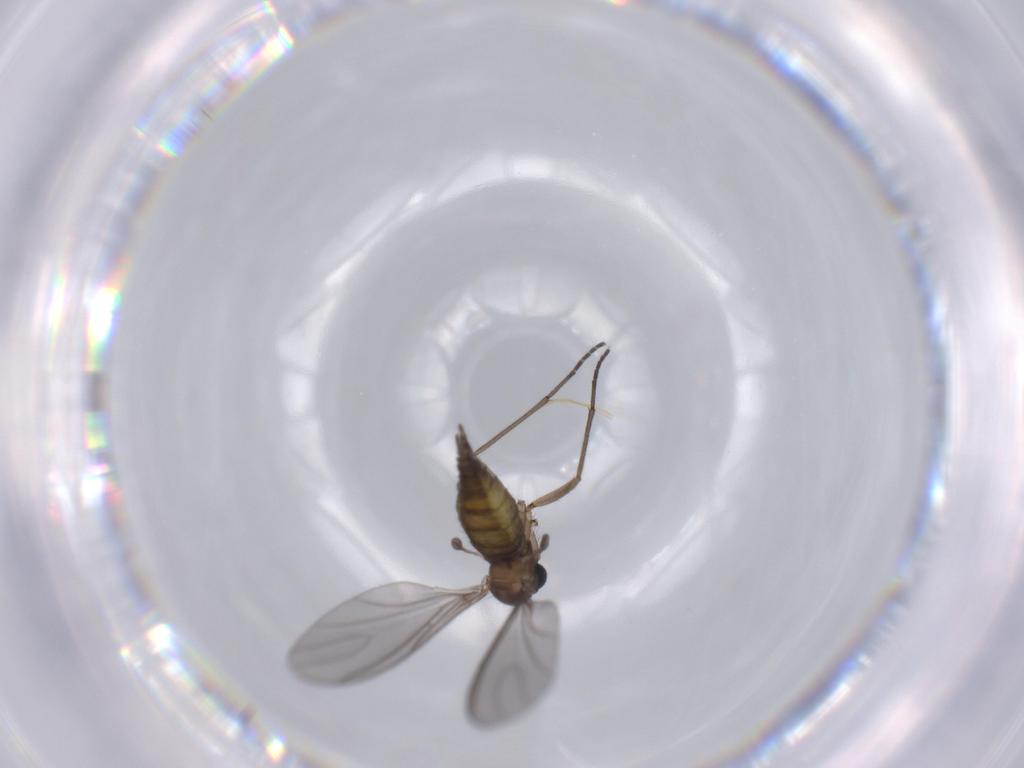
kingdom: Animalia
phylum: Arthropoda
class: Insecta
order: Diptera
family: Sciaridae
